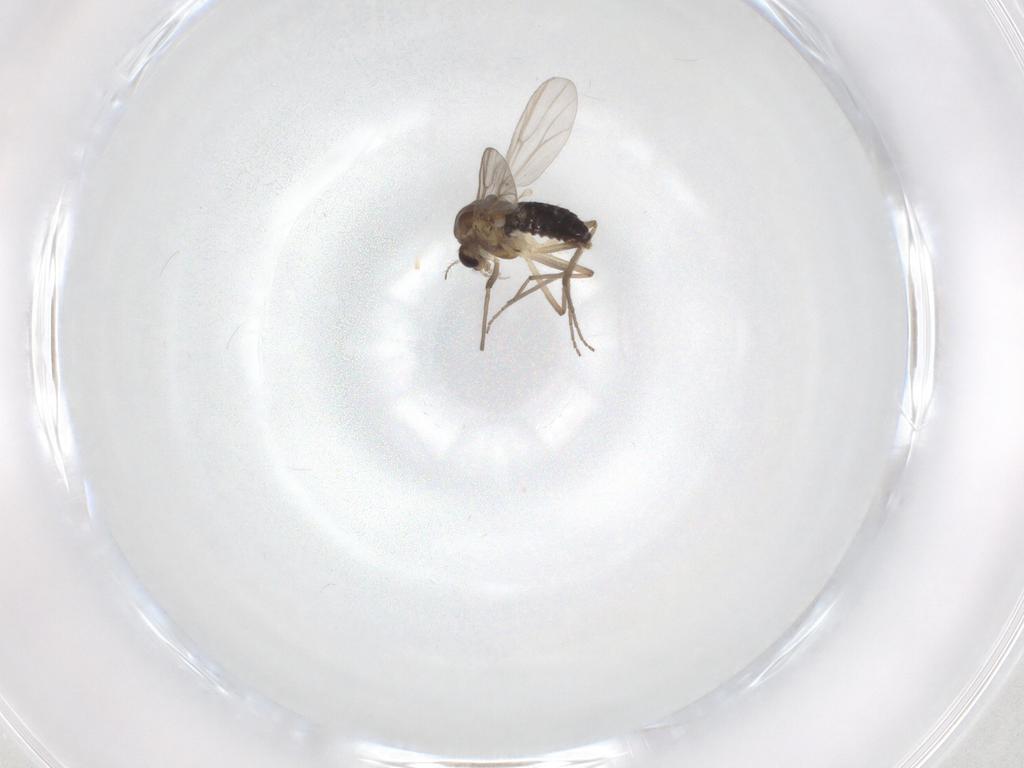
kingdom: Animalia
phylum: Arthropoda
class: Insecta
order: Diptera
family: Chironomidae
